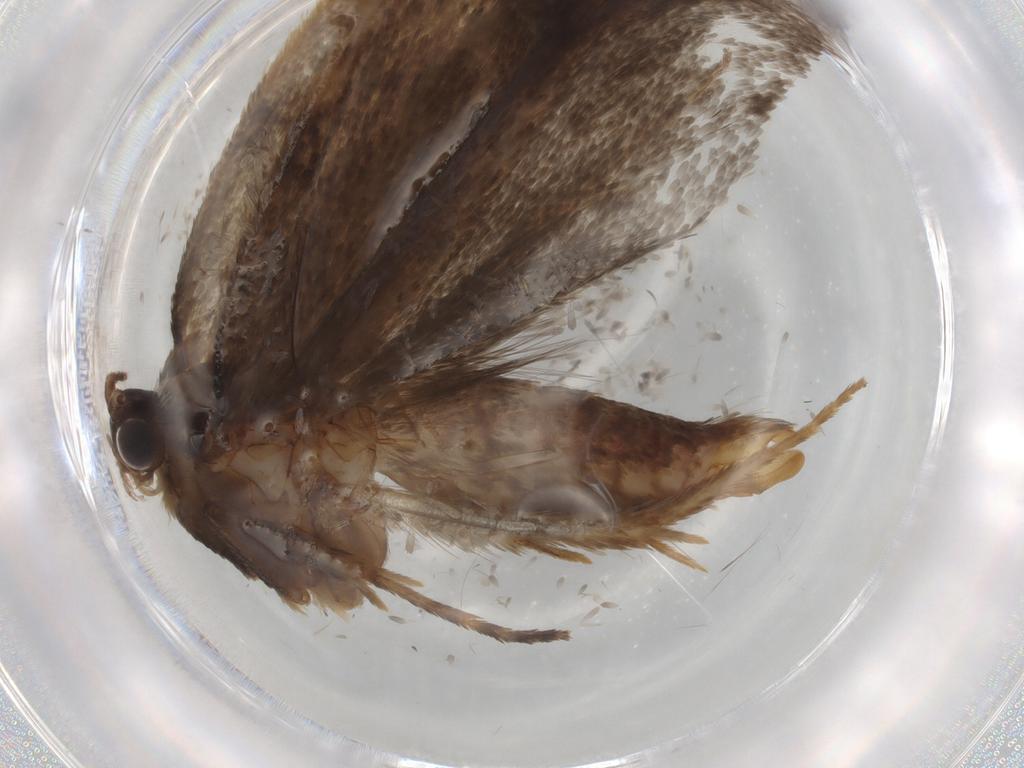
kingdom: Animalia
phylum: Arthropoda
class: Insecta
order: Lepidoptera
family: Eriocottidae
